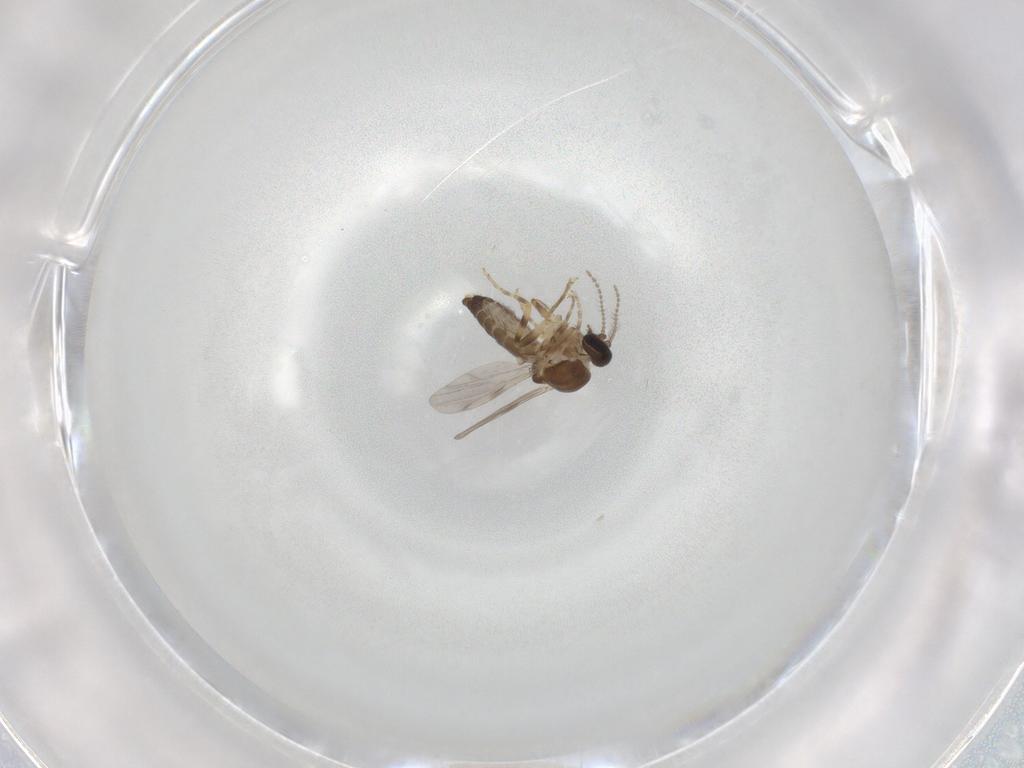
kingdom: Animalia
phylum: Arthropoda
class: Insecta
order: Diptera
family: Ceratopogonidae
